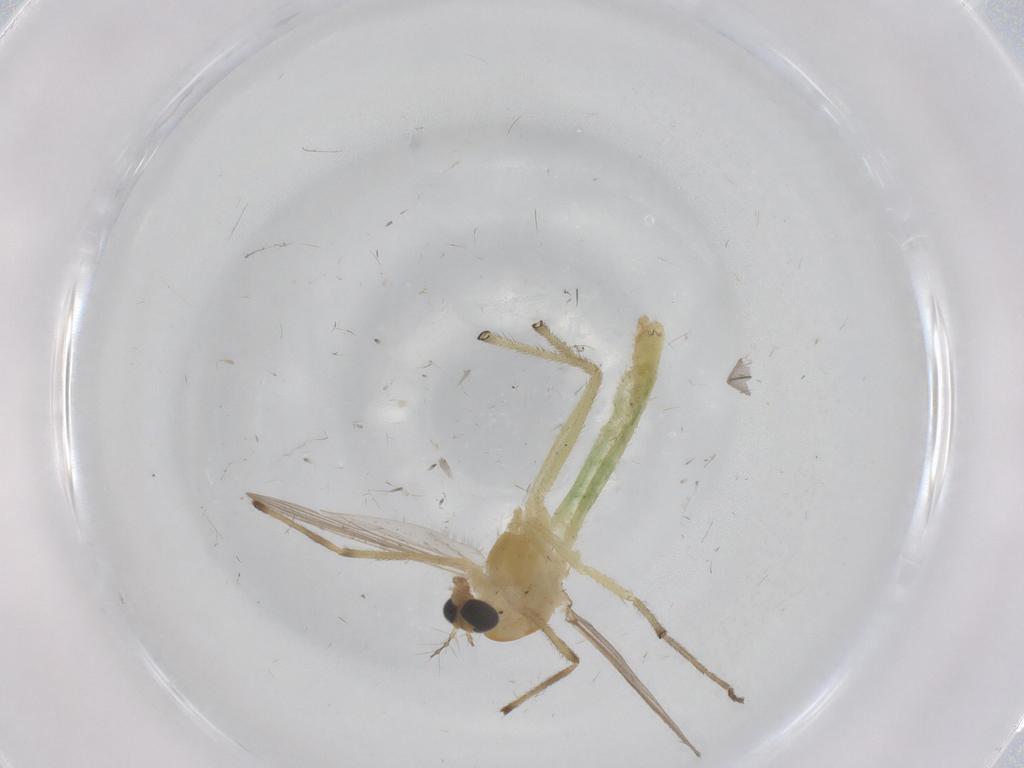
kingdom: Animalia
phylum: Arthropoda
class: Insecta
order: Diptera
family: Chironomidae
